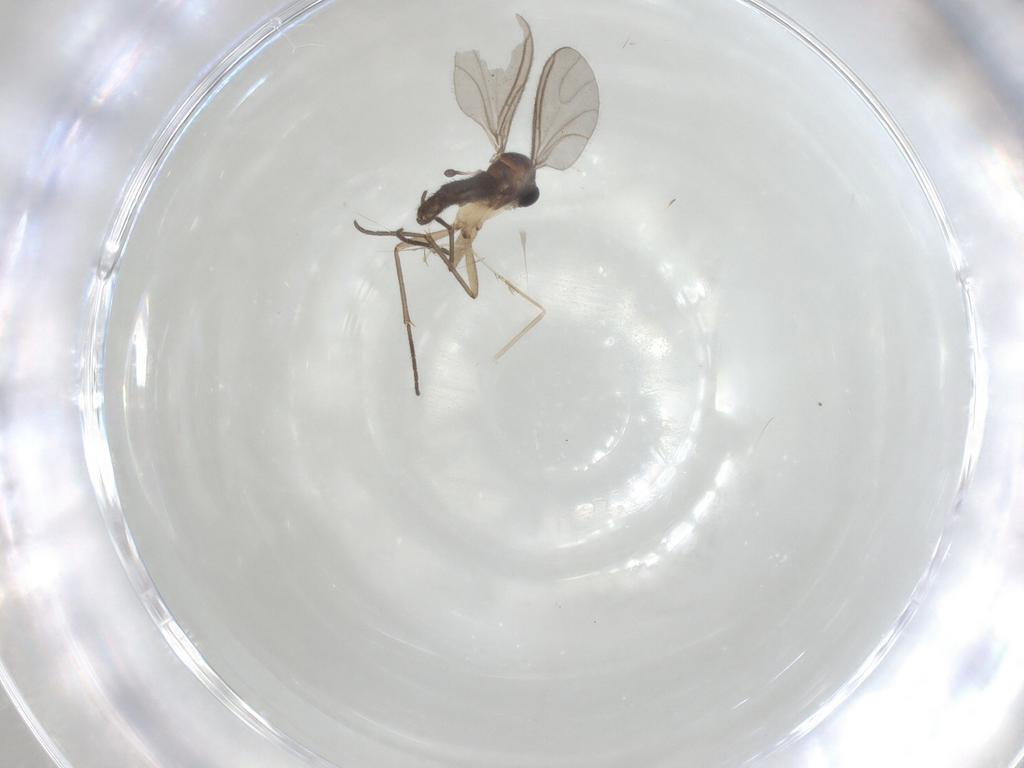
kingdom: Animalia
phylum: Arthropoda
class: Insecta
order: Diptera
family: Sciaridae
